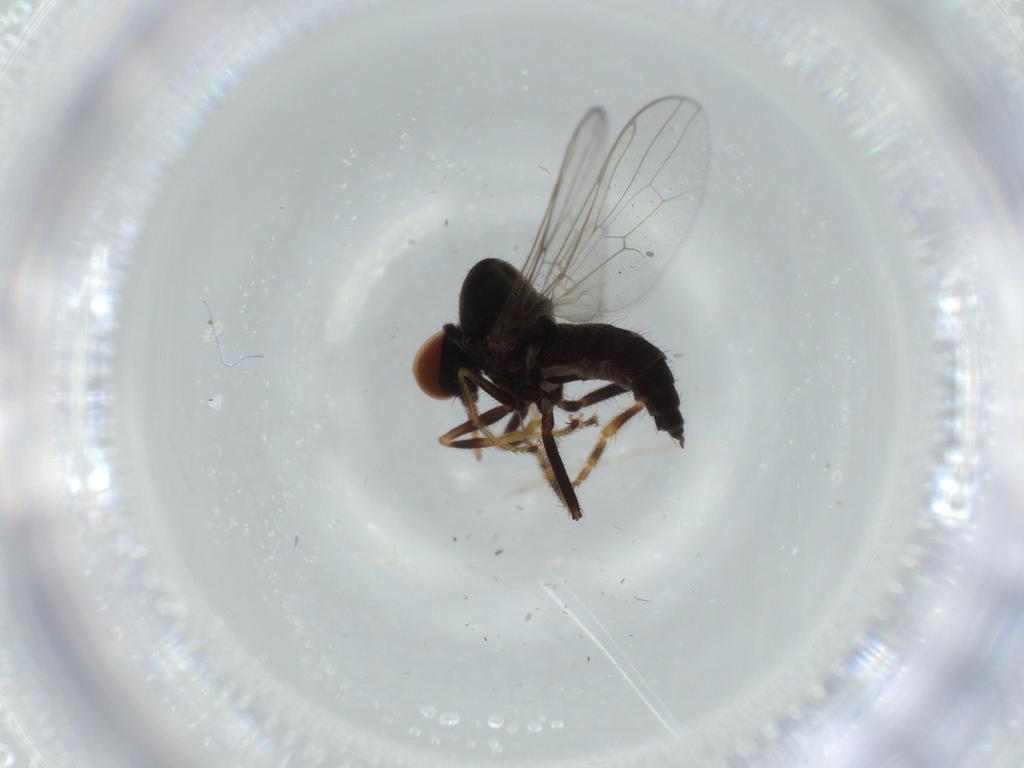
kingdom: Animalia
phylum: Arthropoda
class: Insecta
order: Diptera
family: Hybotidae
